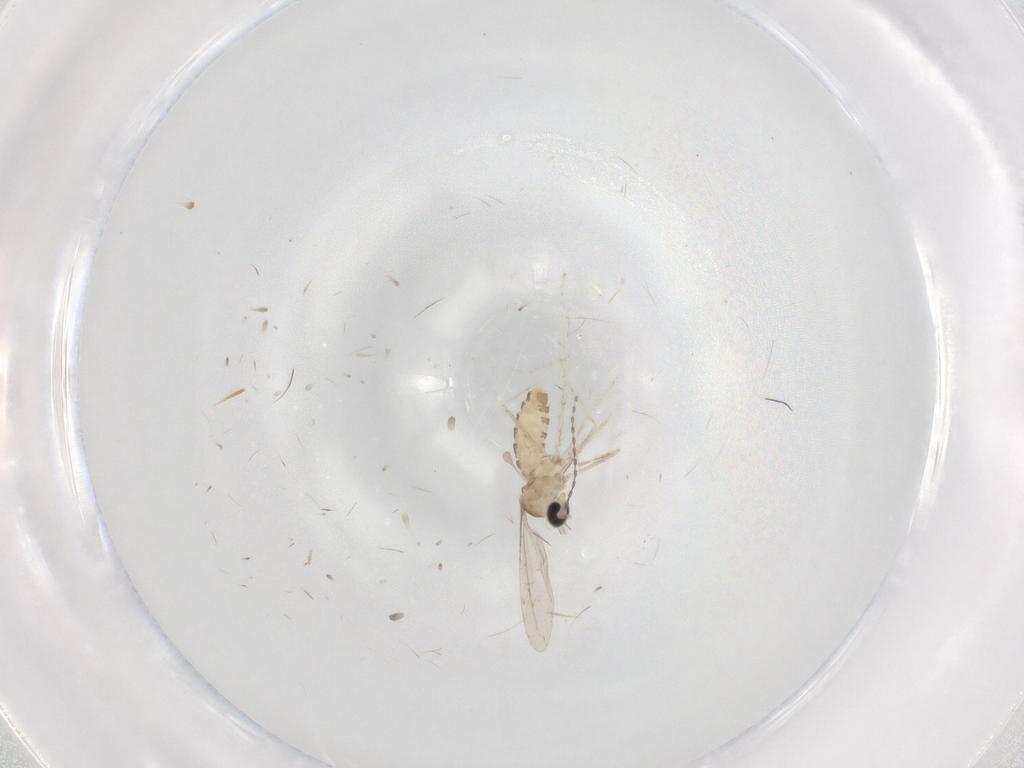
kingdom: Animalia
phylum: Arthropoda
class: Insecta
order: Diptera
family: Cecidomyiidae
